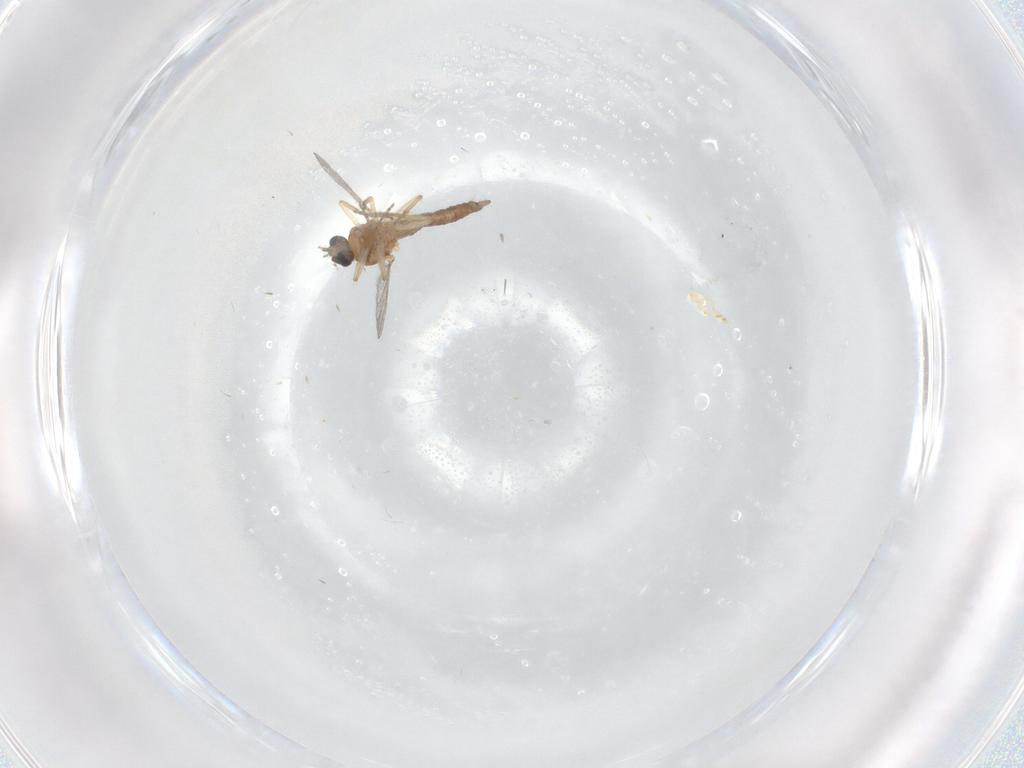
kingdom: Animalia
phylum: Arthropoda
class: Insecta
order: Diptera
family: Ceratopogonidae
